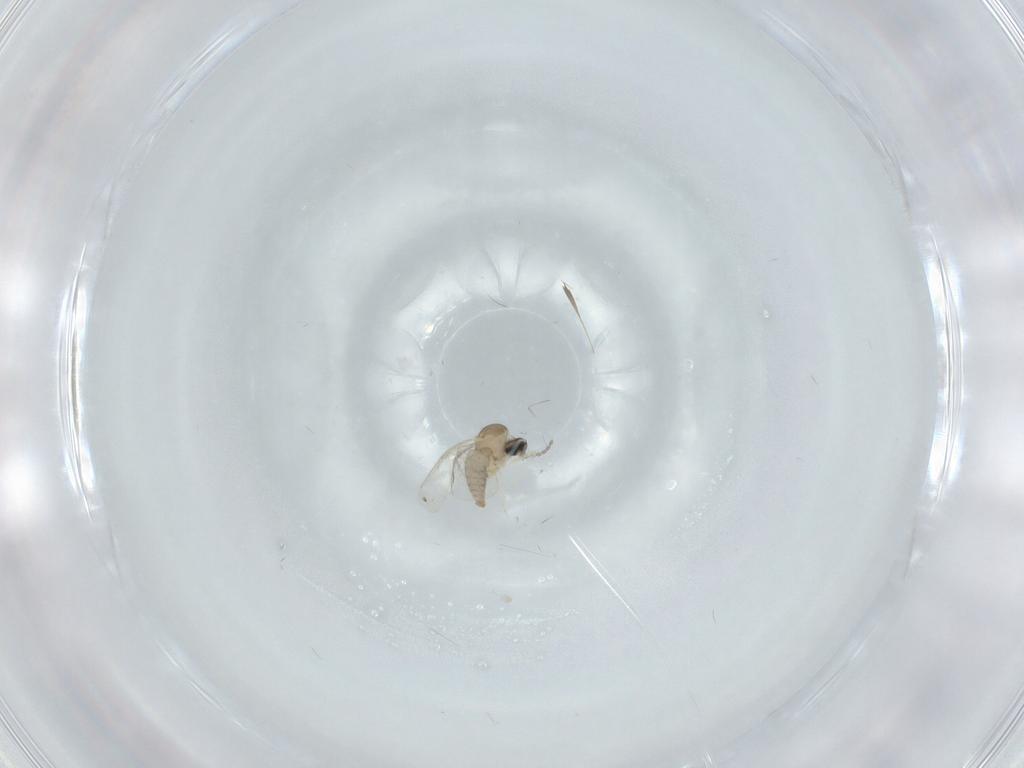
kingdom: Animalia
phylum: Arthropoda
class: Insecta
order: Diptera
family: Cecidomyiidae
